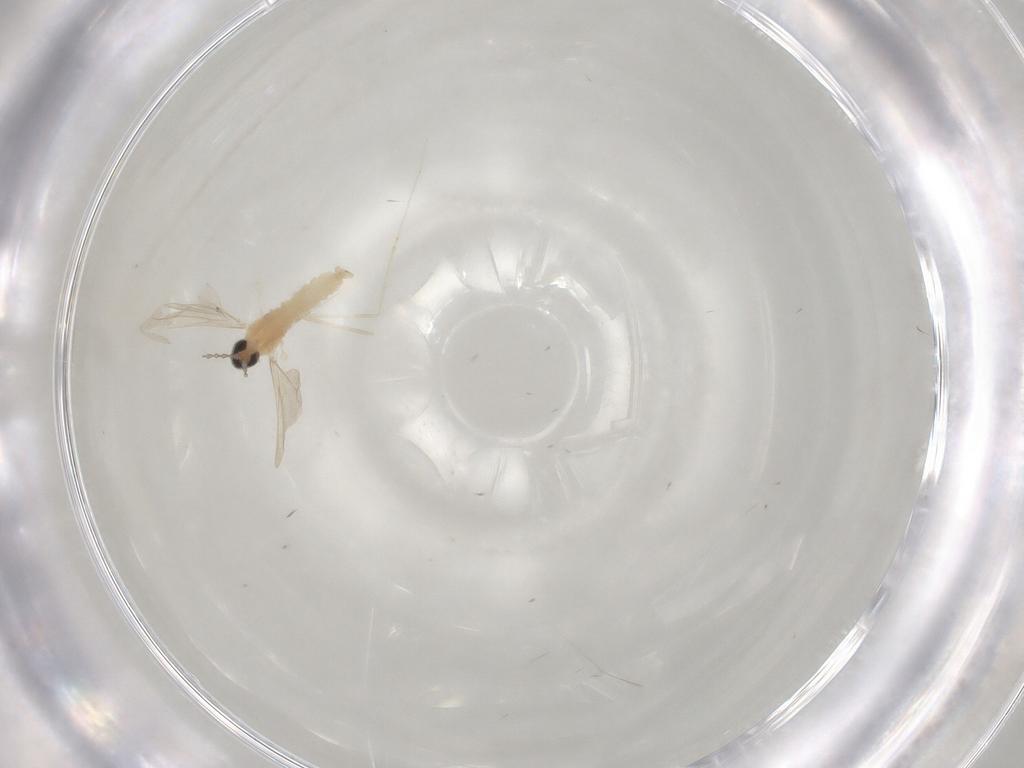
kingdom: Animalia
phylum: Arthropoda
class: Insecta
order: Diptera
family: Cecidomyiidae
